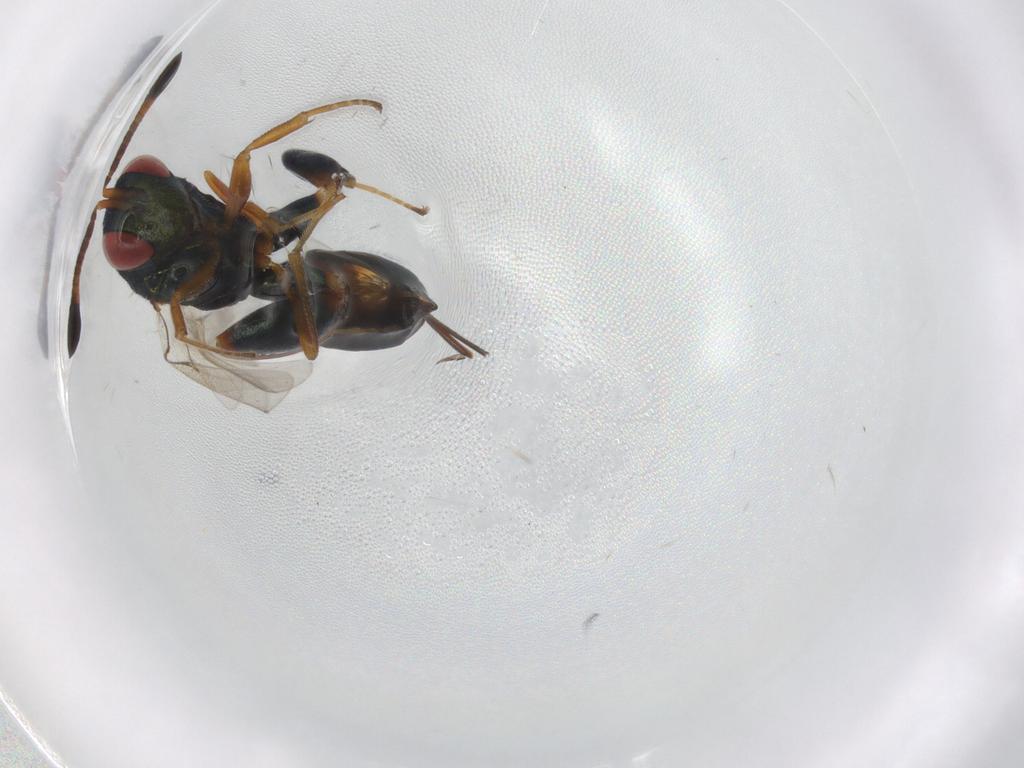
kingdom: Animalia
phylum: Arthropoda
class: Insecta
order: Hymenoptera
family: Torymidae
